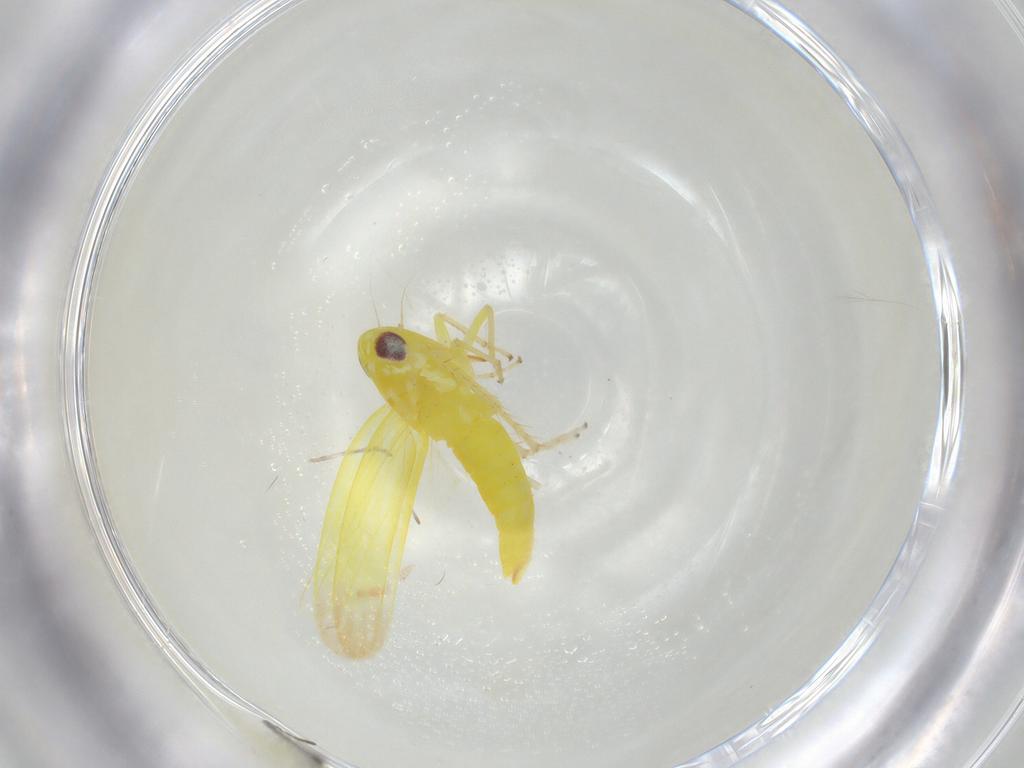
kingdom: Animalia
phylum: Arthropoda
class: Insecta
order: Hemiptera
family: Cicadellidae
